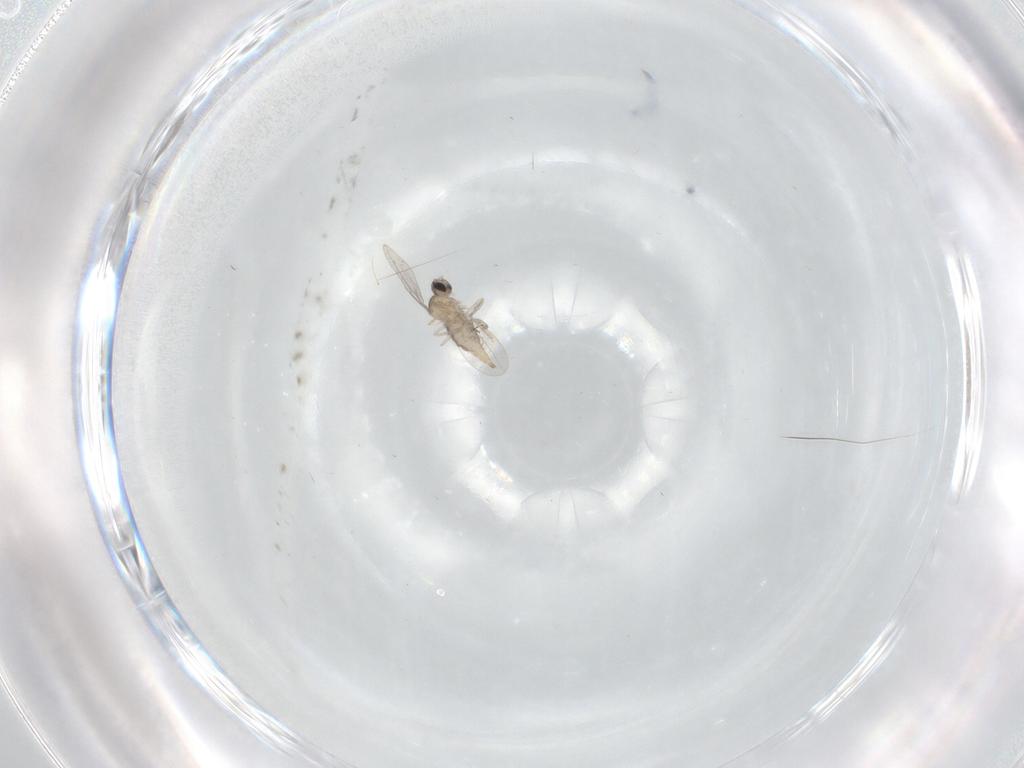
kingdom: Animalia
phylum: Arthropoda
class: Insecta
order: Diptera
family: Cecidomyiidae
